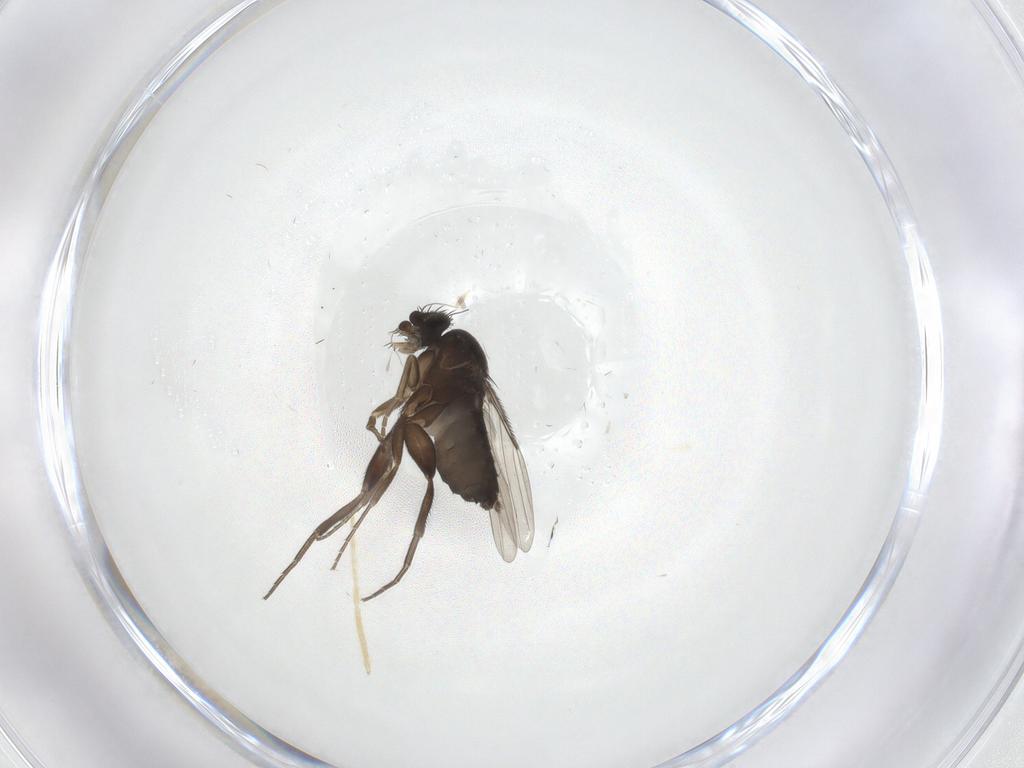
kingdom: Animalia
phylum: Arthropoda
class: Insecta
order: Diptera
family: Phoridae
